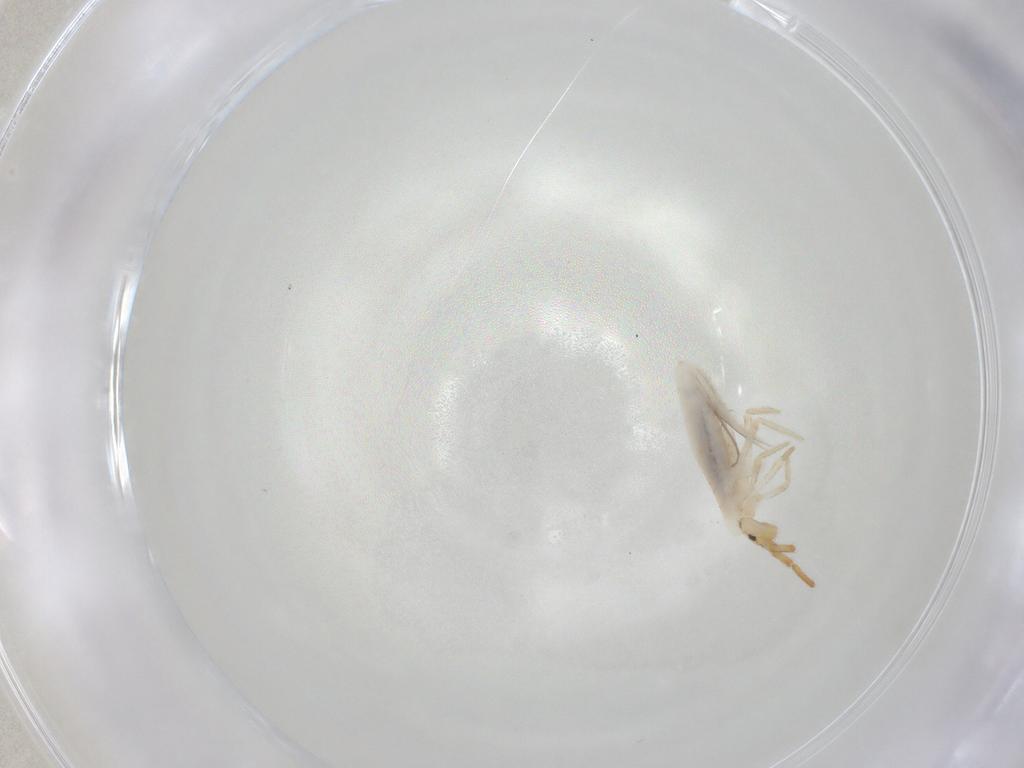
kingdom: Animalia
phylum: Arthropoda
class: Collembola
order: Poduromorpha
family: Hypogastruridae
